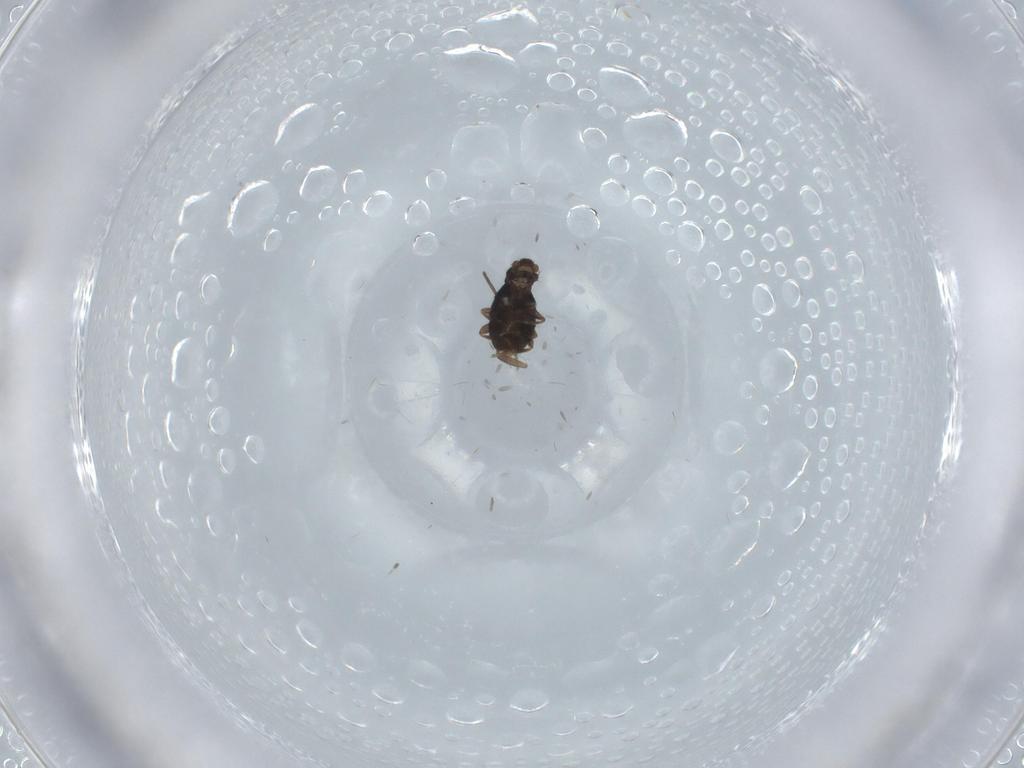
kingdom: Animalia
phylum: Arthropoda
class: Insecta
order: Diptera
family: Phoridae
